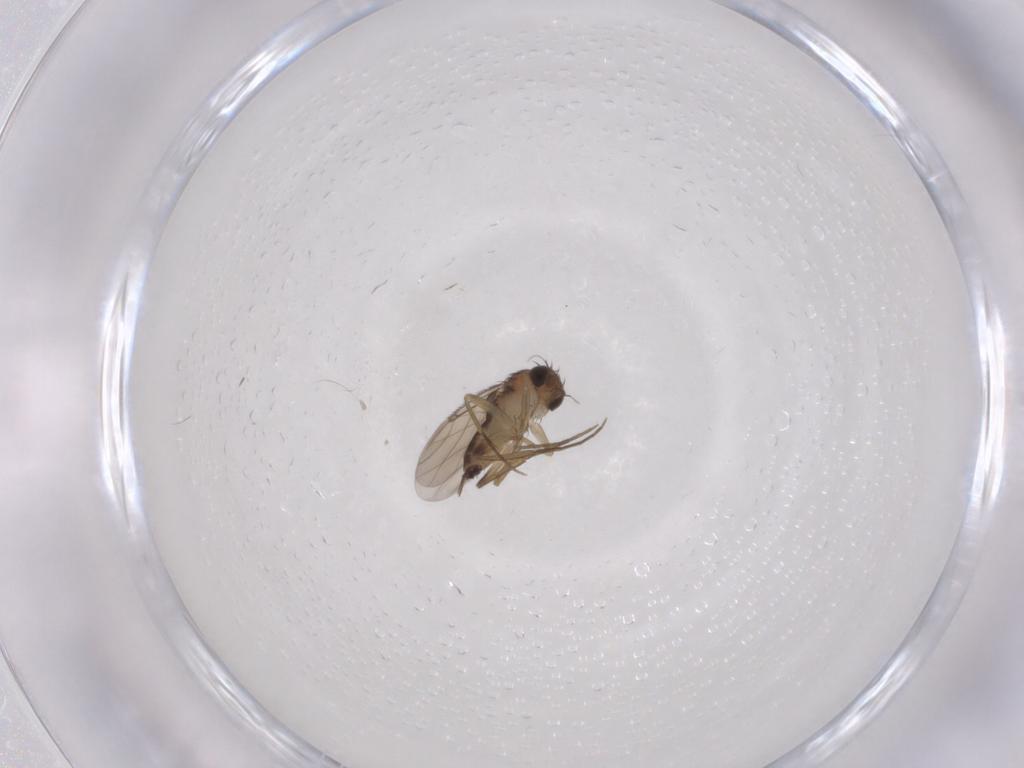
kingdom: Animalia
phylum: Arthropoda
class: Insecta
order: Diptera
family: Phoridae
